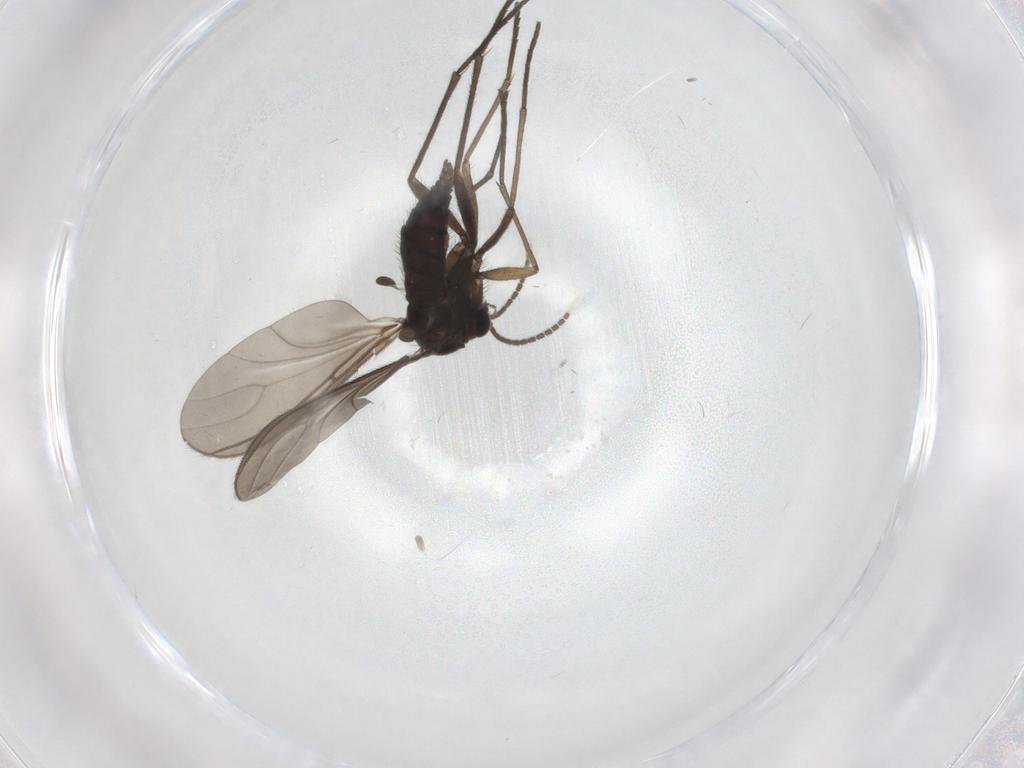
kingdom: Animalia
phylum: Arthropoda
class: Insecta
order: Diptera
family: Sciaridae
